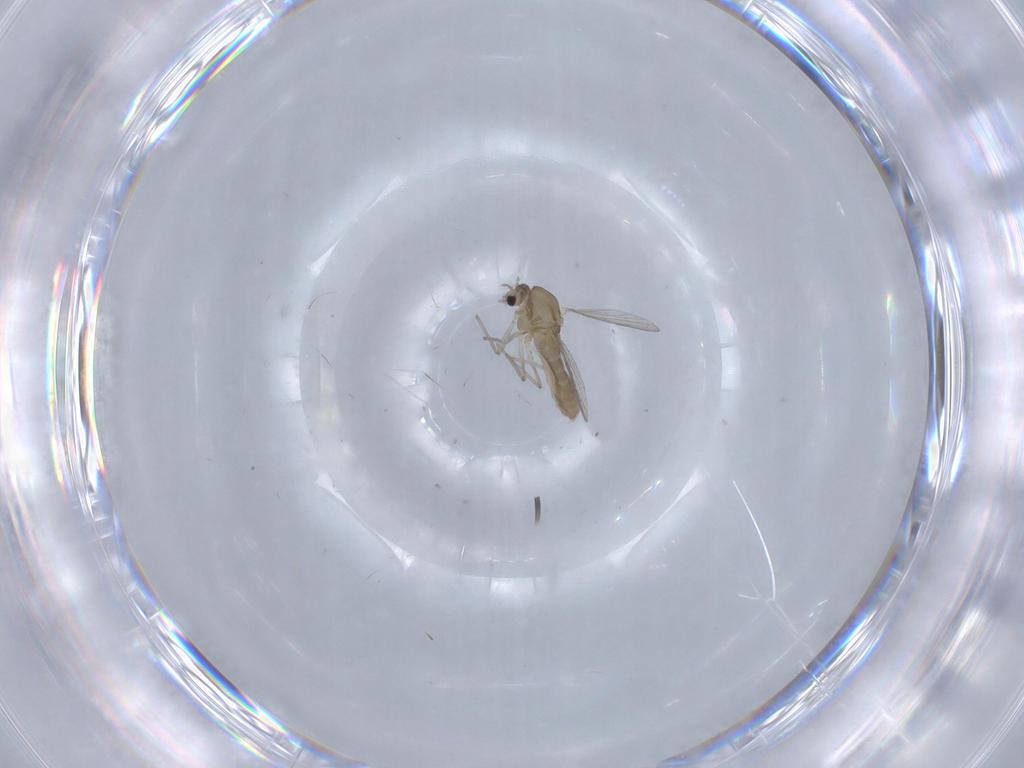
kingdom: Animalia
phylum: Arthropoda
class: Insecta
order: Diptera
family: Chironomidae
